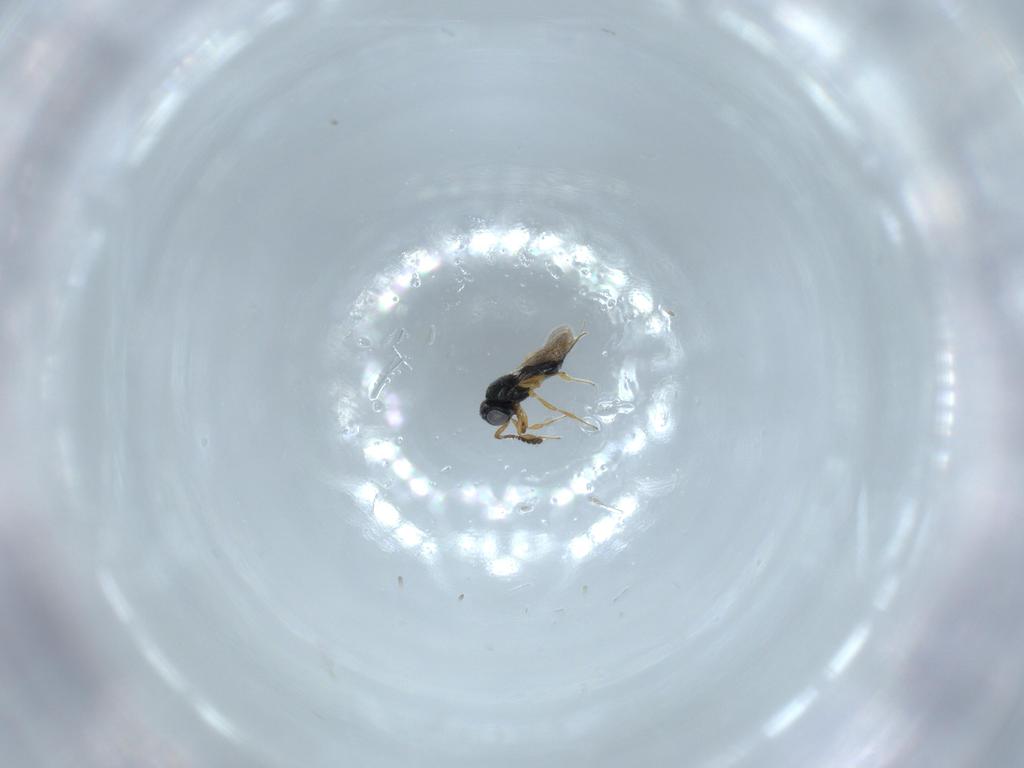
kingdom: Animalia
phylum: Arthropoda
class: Insecta
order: Hymenoptera
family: Scelionidae
